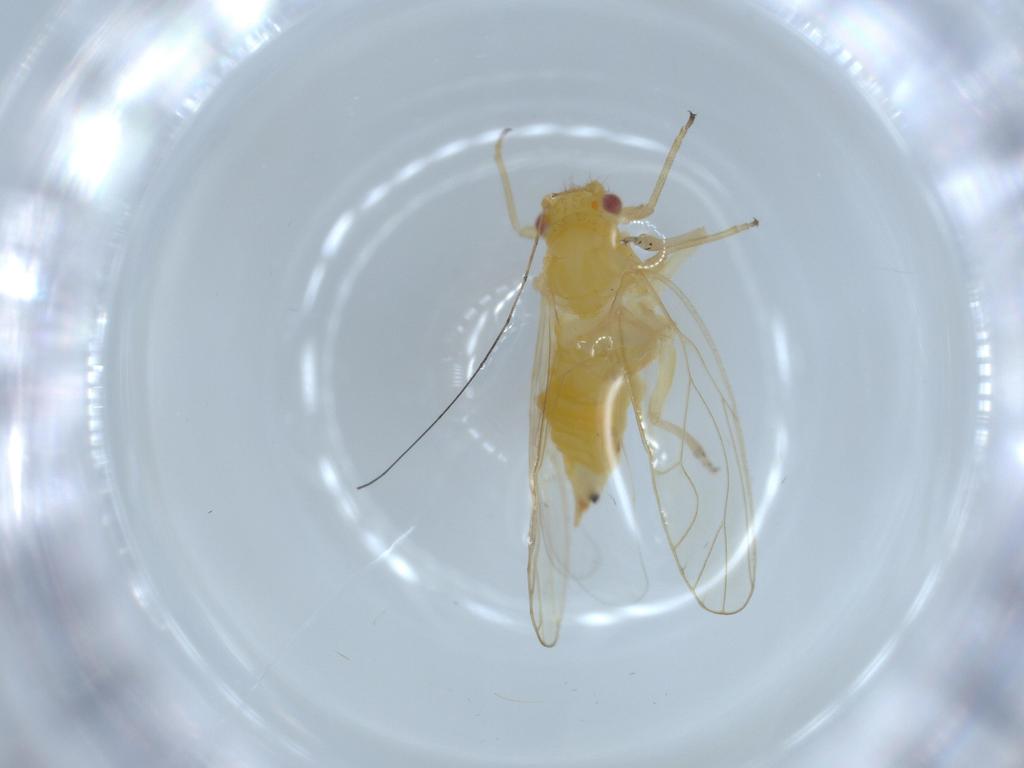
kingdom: Animalia
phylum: Arthropoda
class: Insecta
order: Hemiptera
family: Psyllidae
